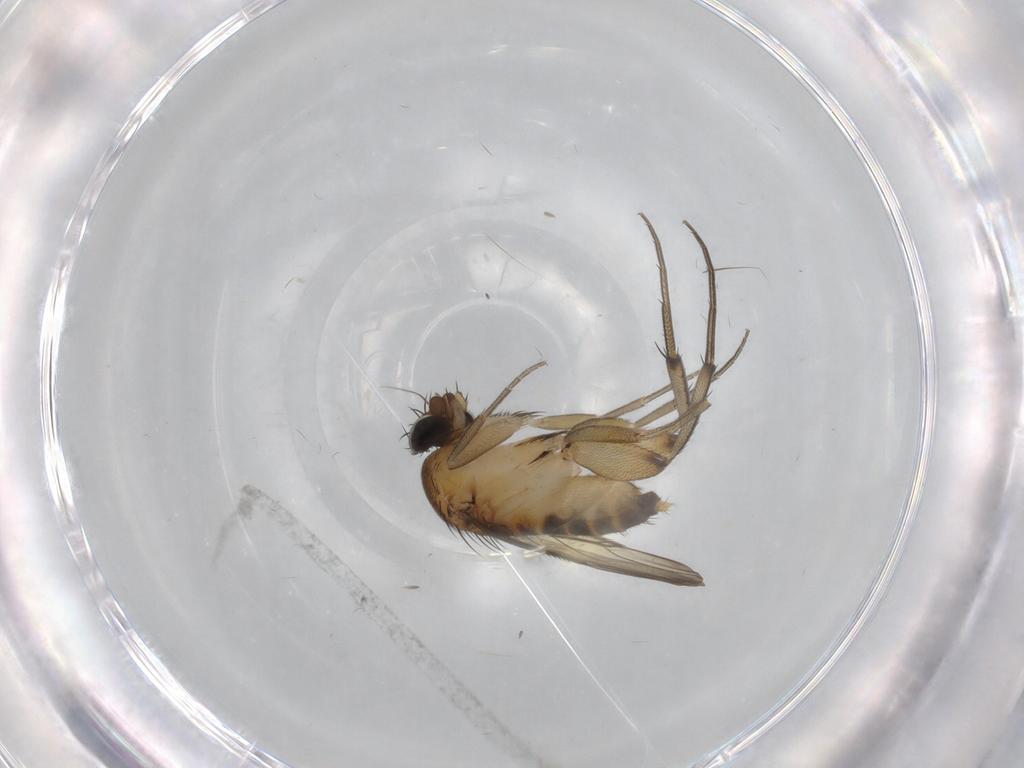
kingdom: Animalia
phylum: Arthropoda
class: Insecta
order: Diptera
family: Phoridae
